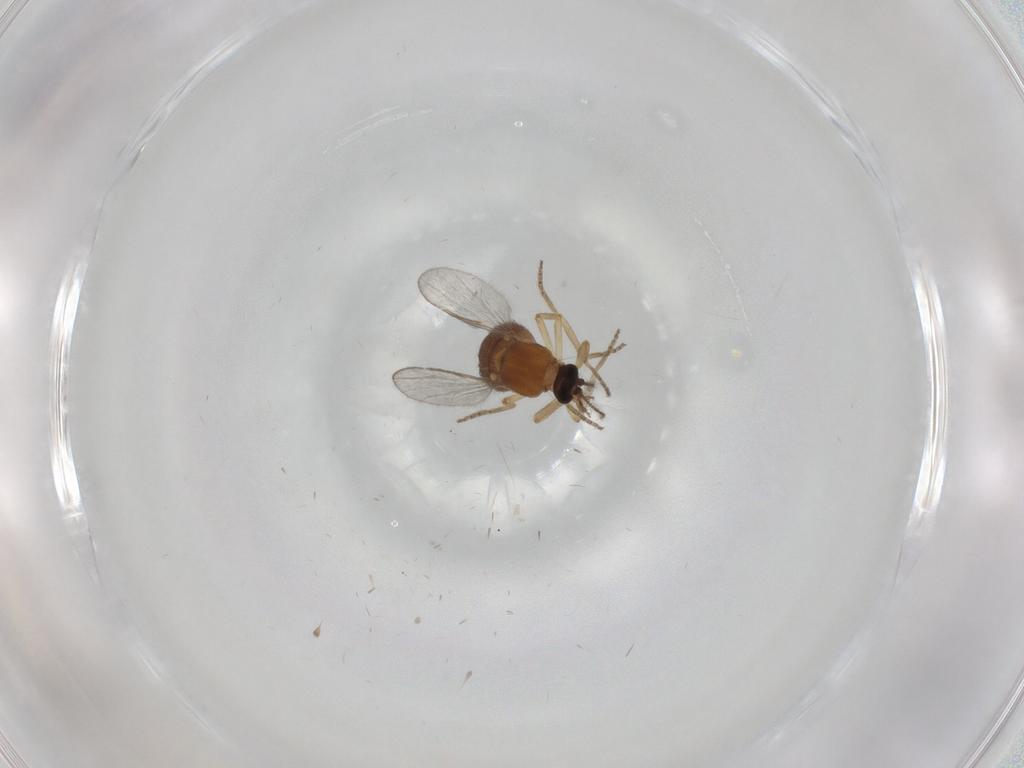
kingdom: Animalia
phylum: Arthropoda
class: Insecta
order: Diptera
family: Ceratopogonidae
